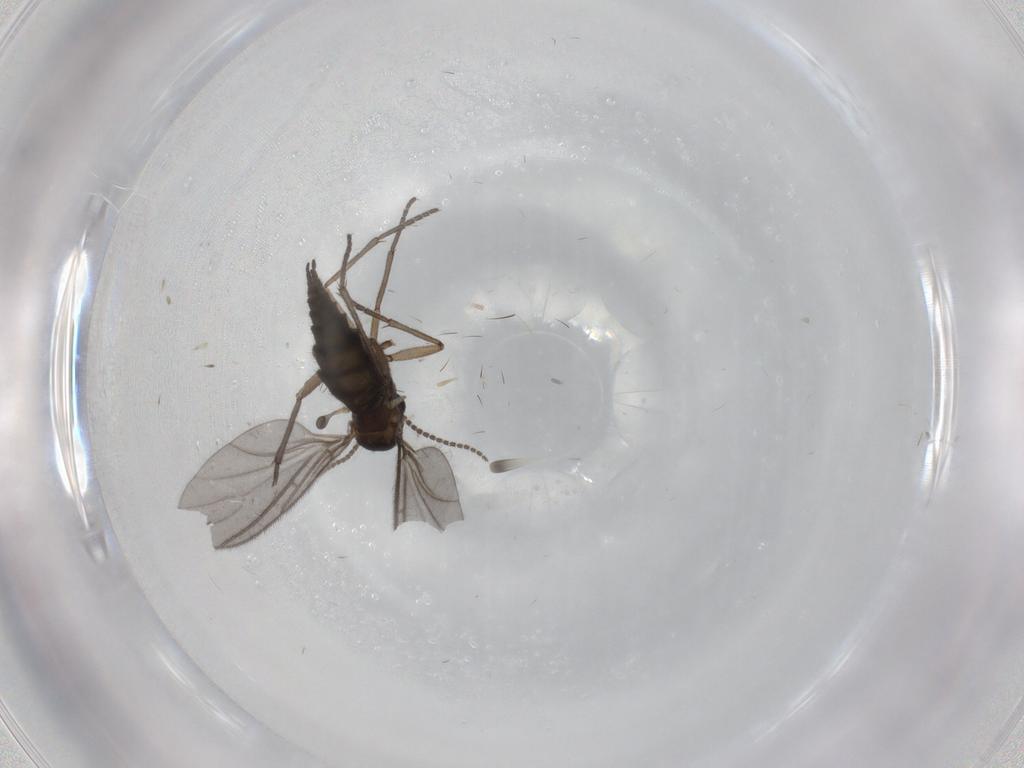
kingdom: Animalia
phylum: Arthropoda
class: Insecta
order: Diptera
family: Sciaridae
